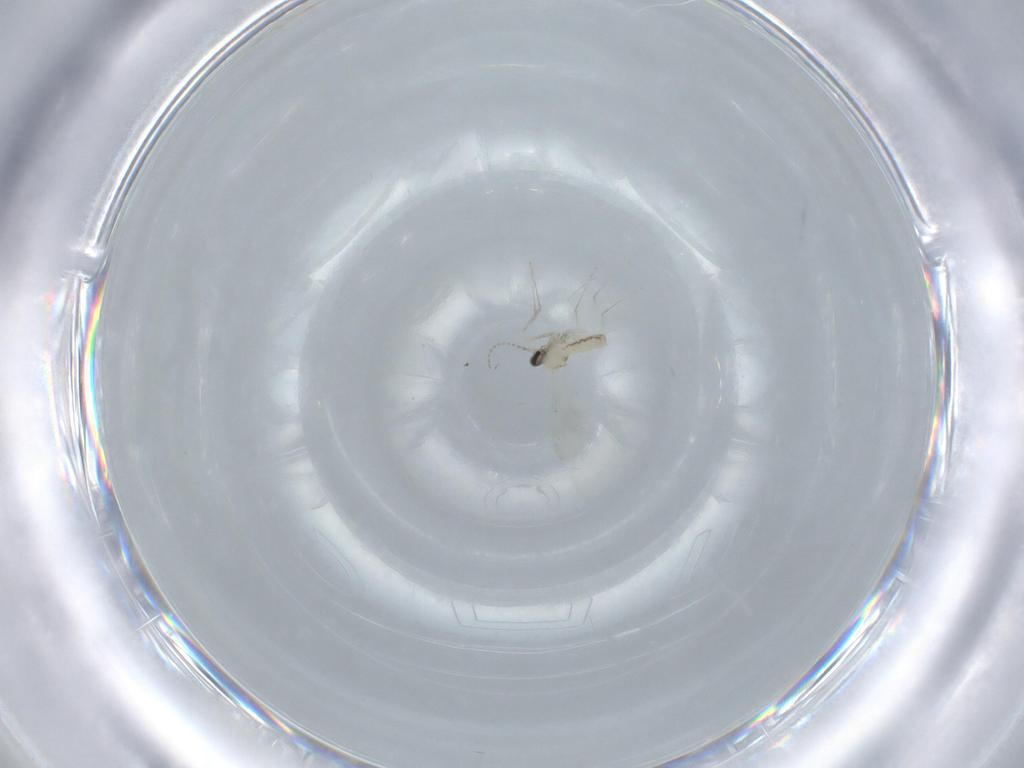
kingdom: Animalia
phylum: Arthropoda
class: Insecta
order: Diptera
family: Cecidomyiidae
